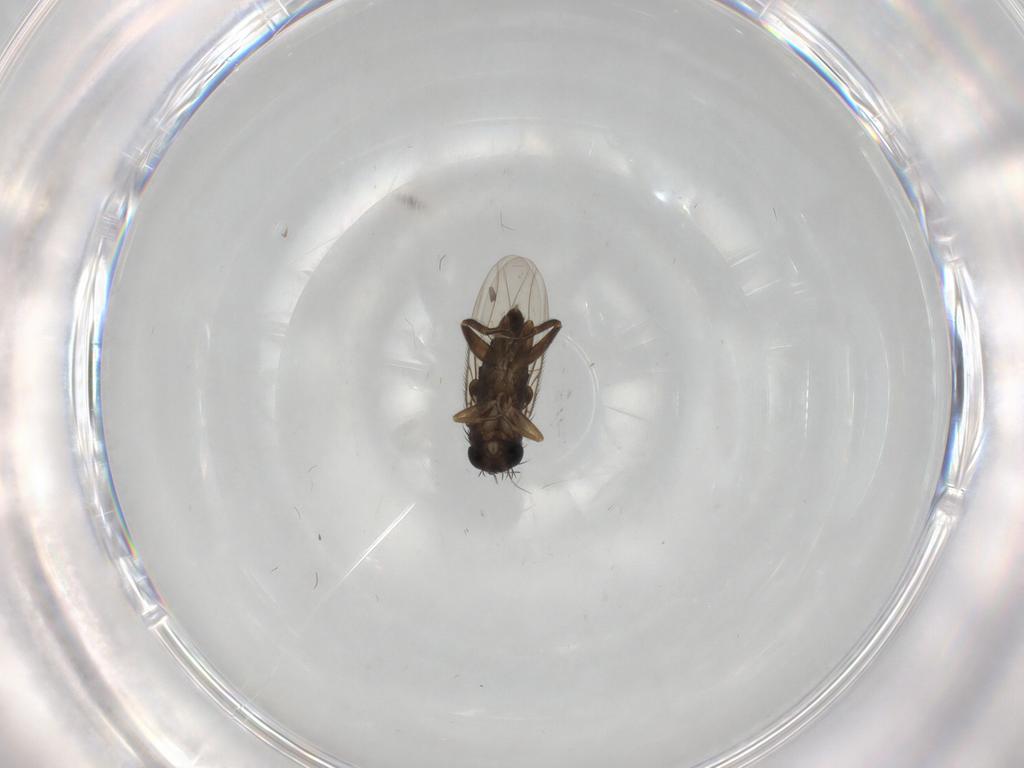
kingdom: Animalia
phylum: Arthropoda
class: Insecta
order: Diptera
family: Phoridae
